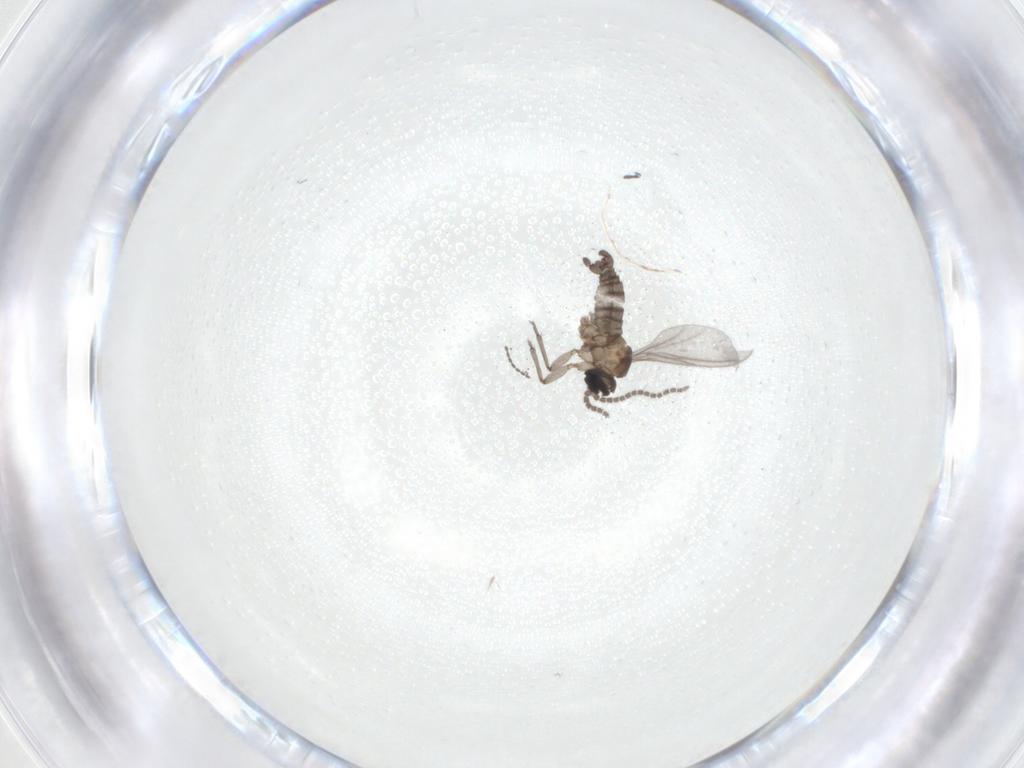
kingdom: Animalia
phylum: Arthropoda
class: Insecta
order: Diptera
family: Sciaridae
